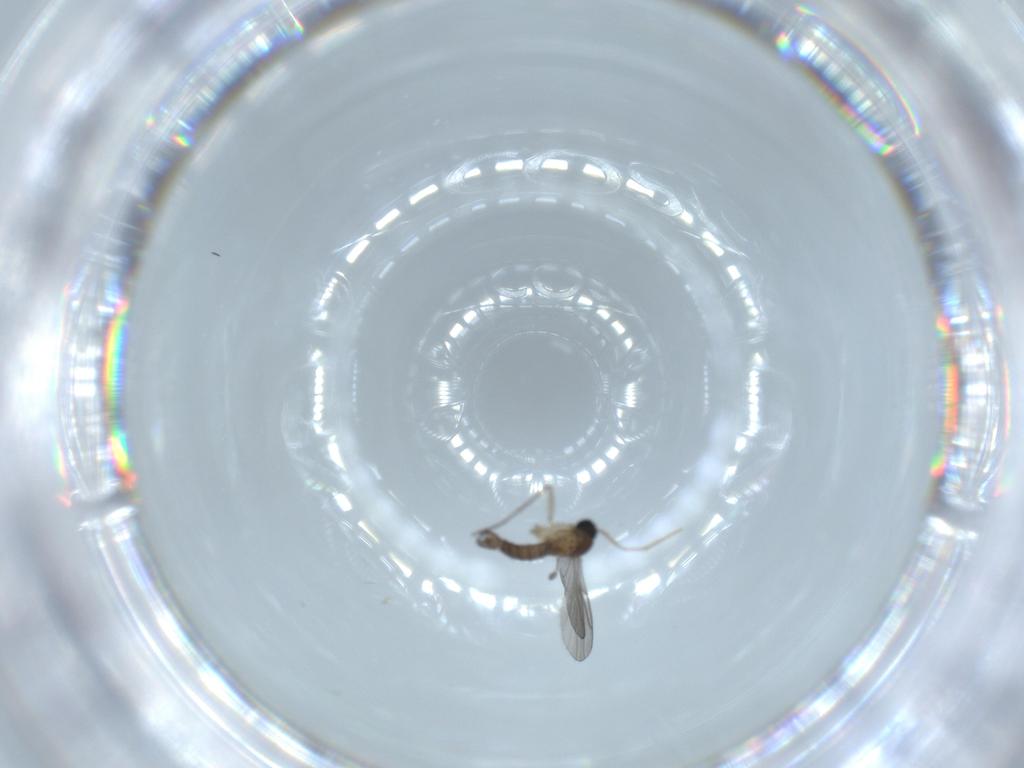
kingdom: Animalia
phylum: Arthropoda
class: Insecta
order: Diptera
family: Sciaridae
